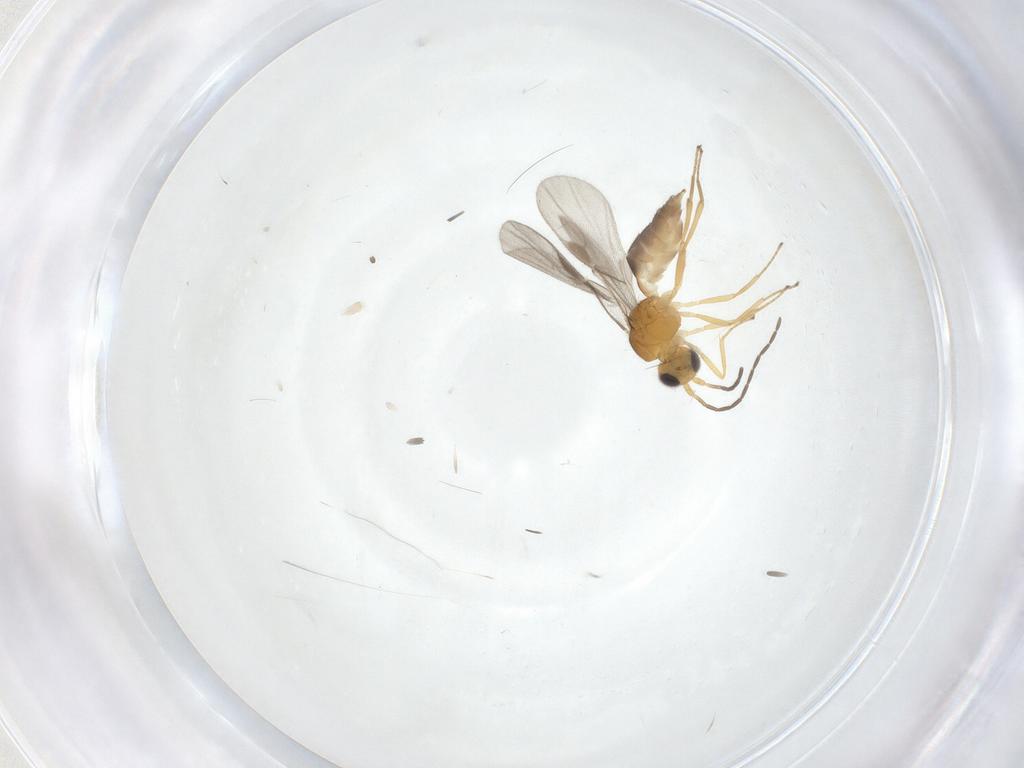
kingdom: Animalia
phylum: Arthropoda
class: Insecta
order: Hymenoptera
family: Braconidae
